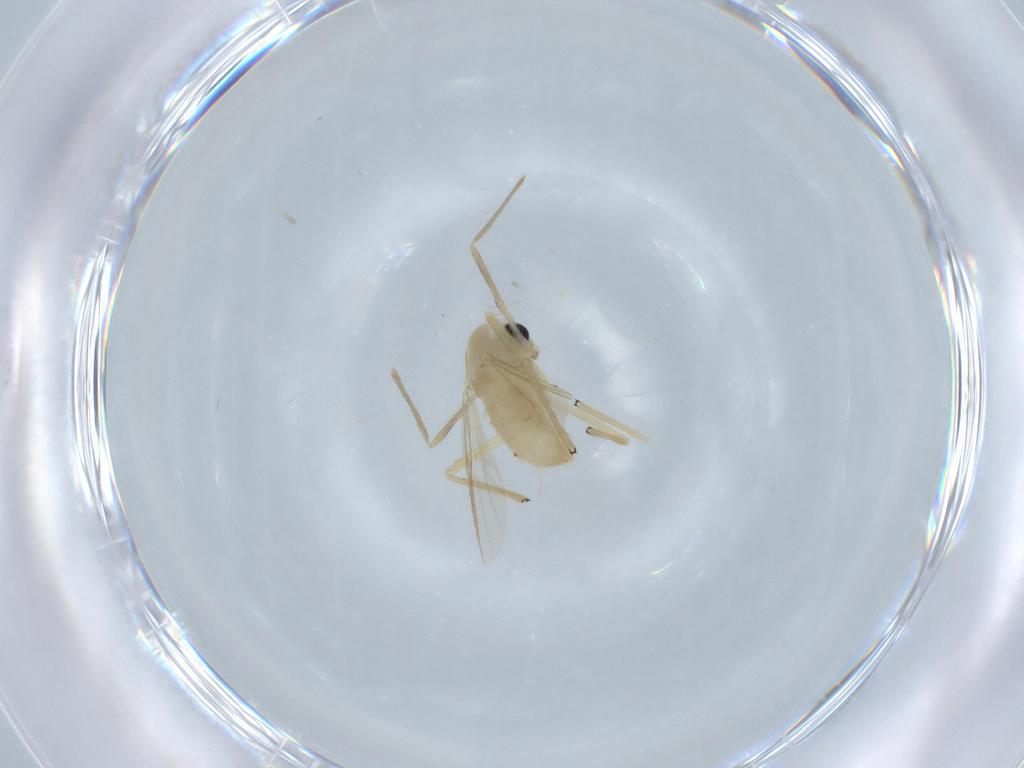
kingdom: Animalia
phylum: Arthropoda
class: Insecta
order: Diptera
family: Chironomidae
